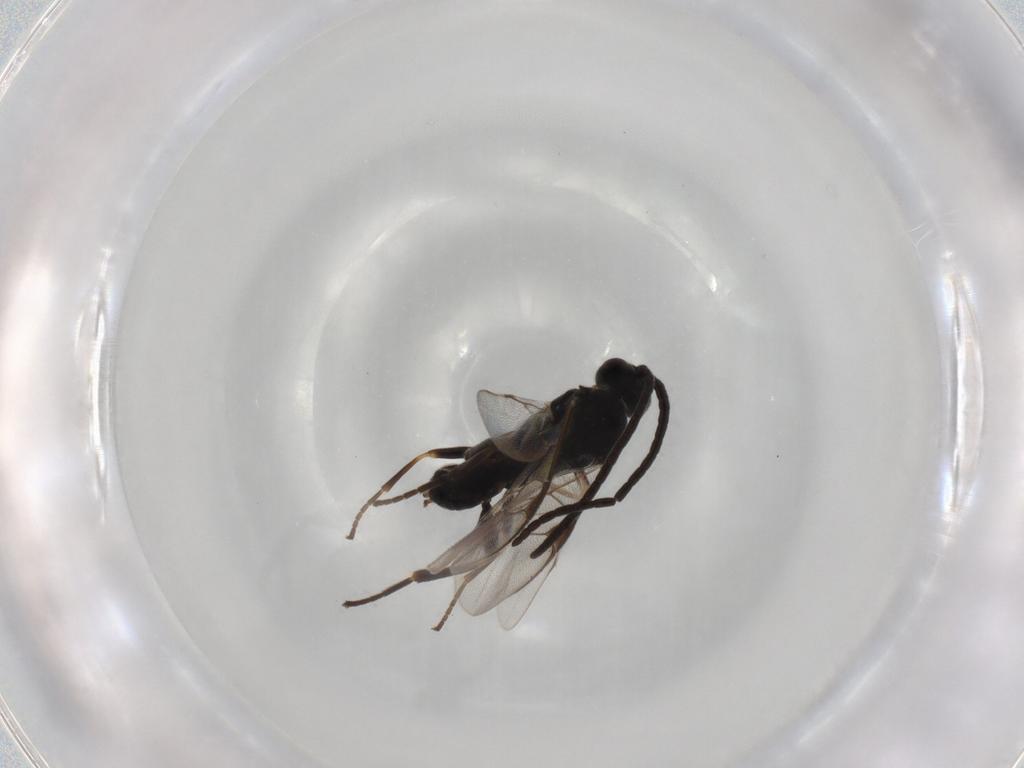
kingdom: Animalia
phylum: Arthropoda
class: Insecta
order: Hymenoptera
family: Braconidae
